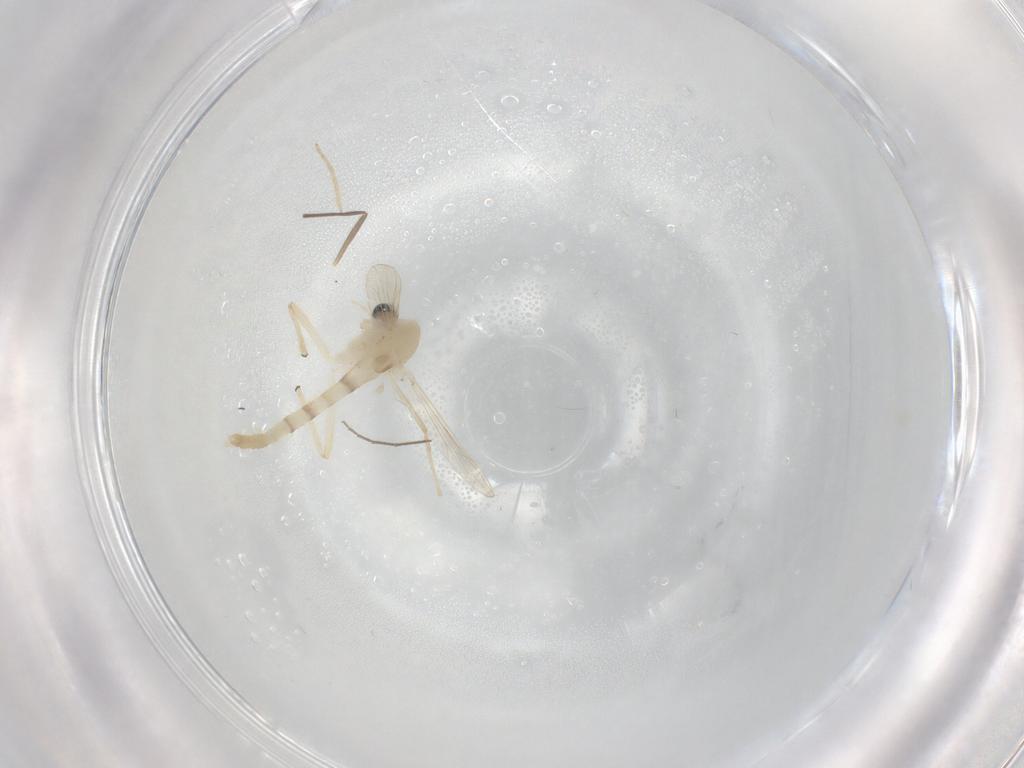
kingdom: Animalia
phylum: Arthropoda
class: Insecta
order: Diptera
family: Chironomidae
